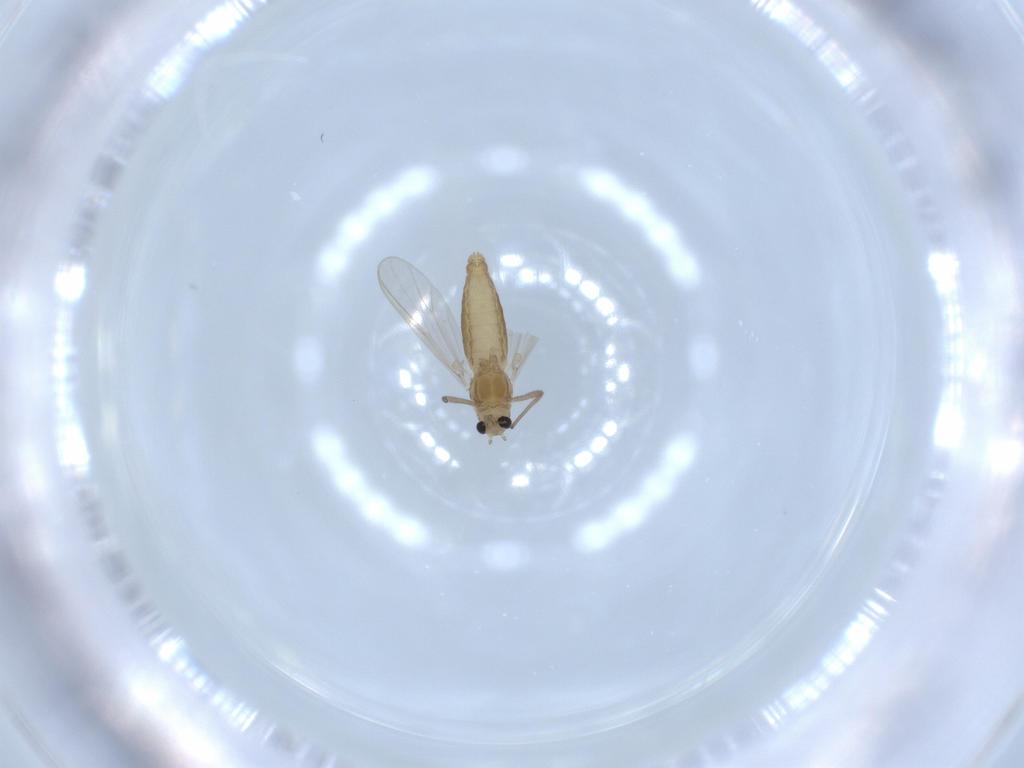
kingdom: Animalia
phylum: Arthropoda
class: Insecta
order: Diptera
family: Chironomidae
